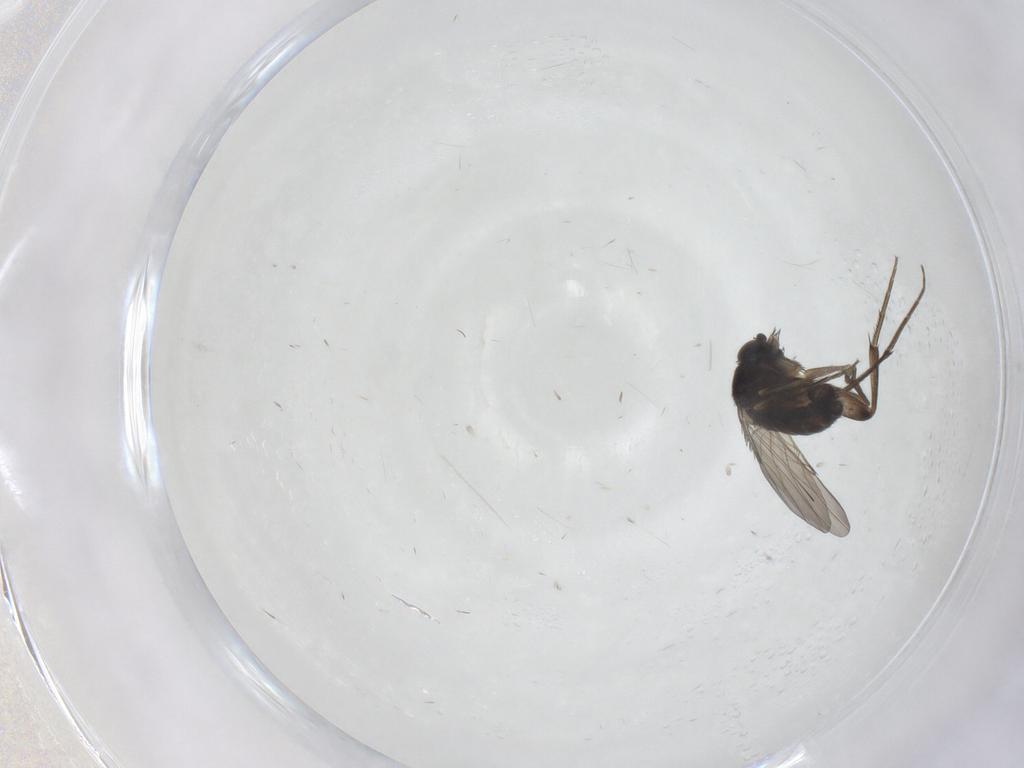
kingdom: Animalia
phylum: Arthropoda
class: Insecta
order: Diptera
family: Phoridae
